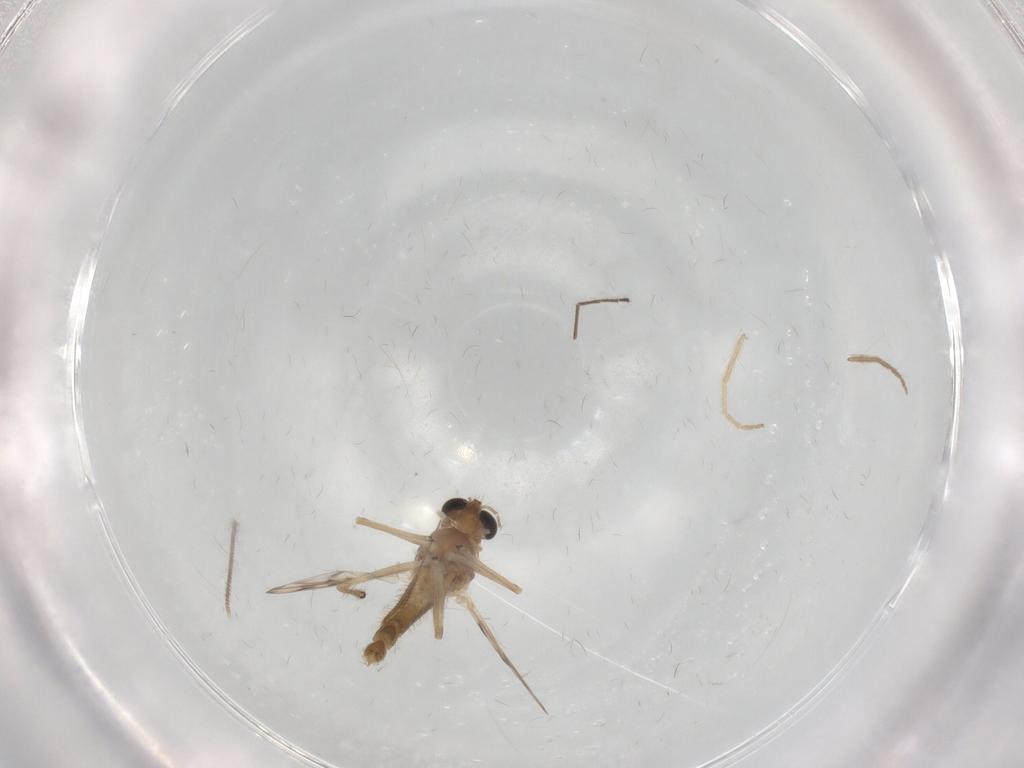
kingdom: Animalia
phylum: Arthropoda
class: Insecta
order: Diptera
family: Chironomidae
